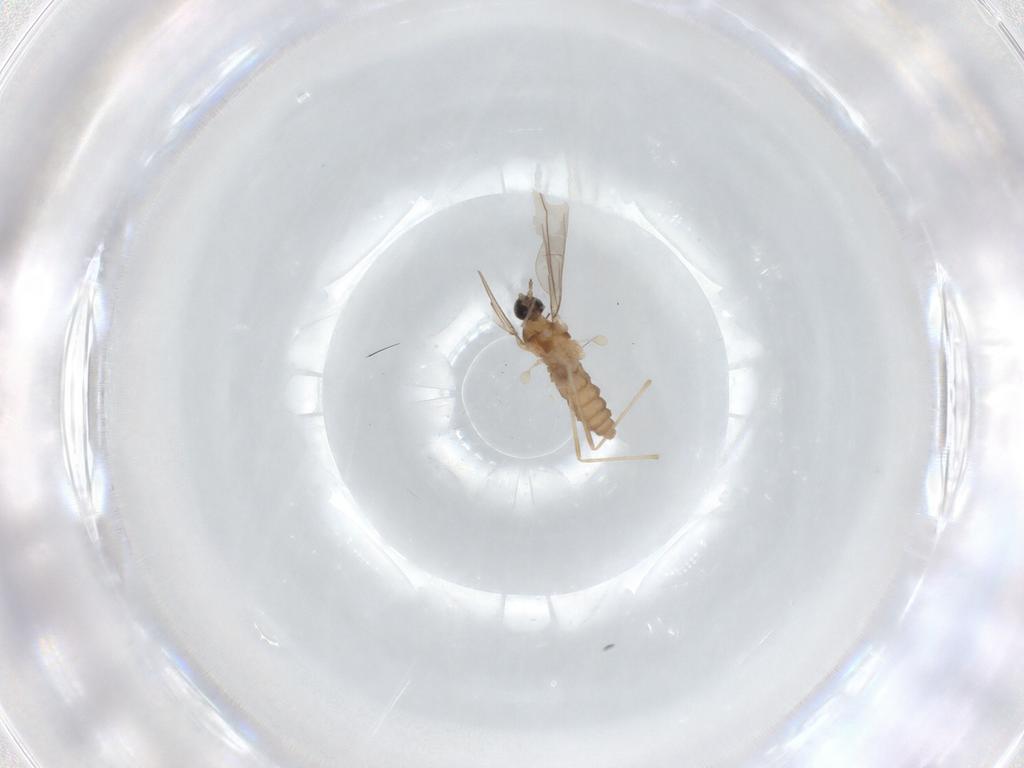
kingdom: Animalia
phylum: Arthropoda
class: Insecta
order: Diptera
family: Cecidomyiidae
